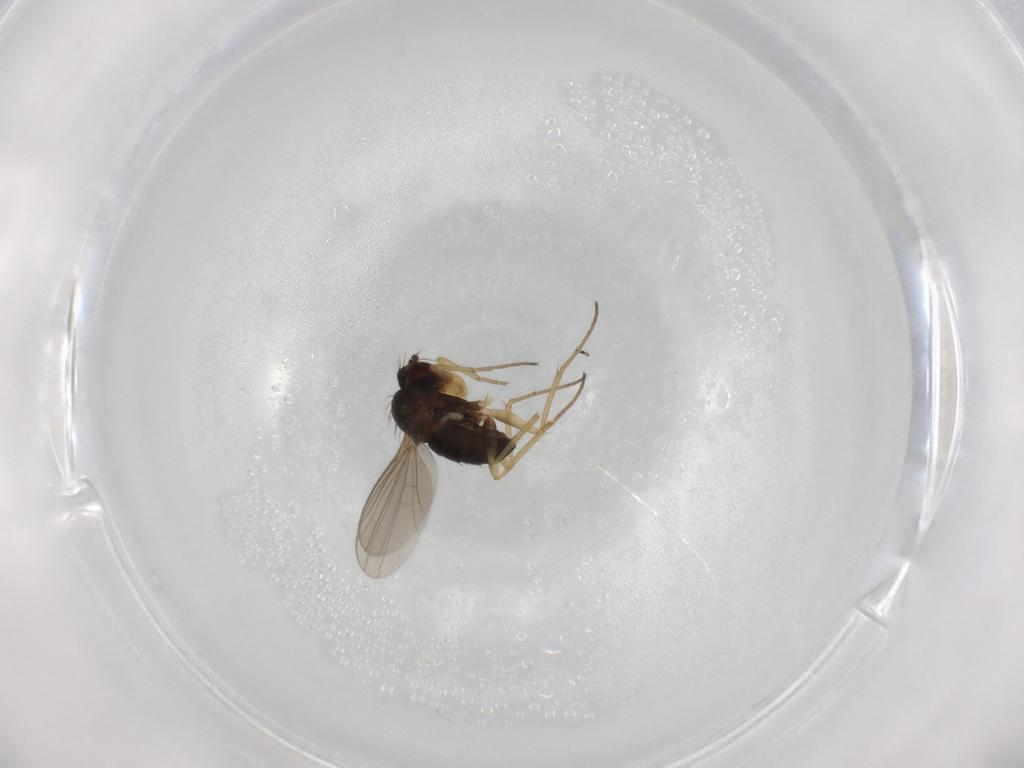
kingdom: Animalia
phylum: Arthropoda
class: Insecta
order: Diptera
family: Dolichopodidae
